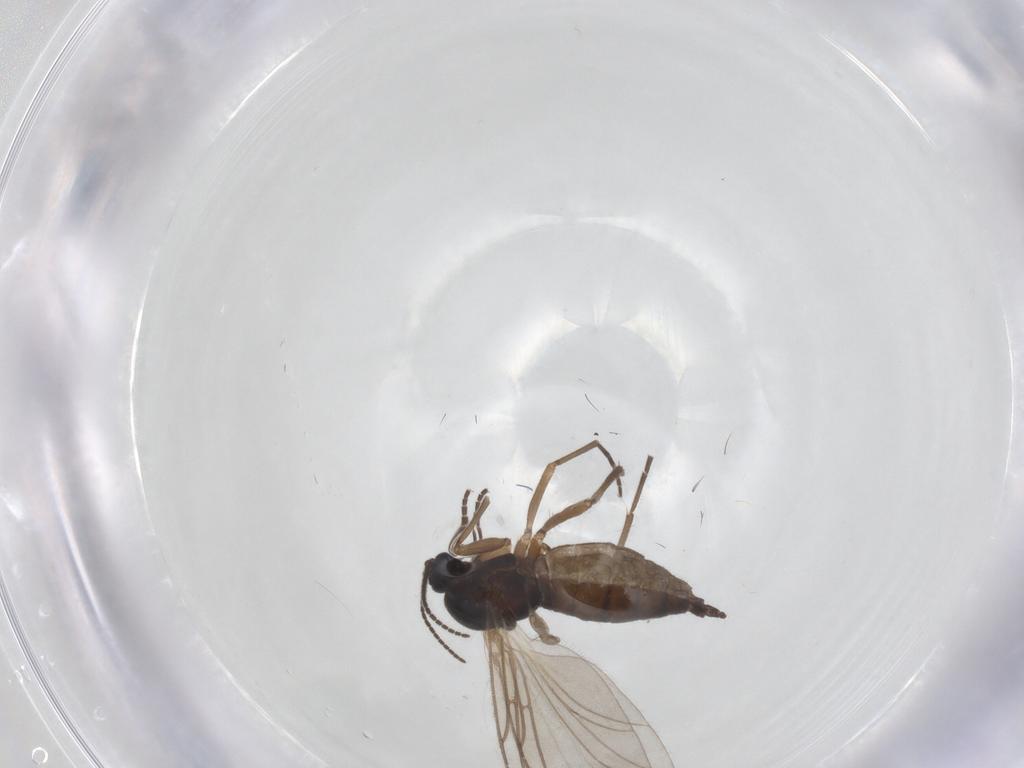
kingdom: Animalia
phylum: Arthropoda
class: Insecta
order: Diptera
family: Sciaridae
